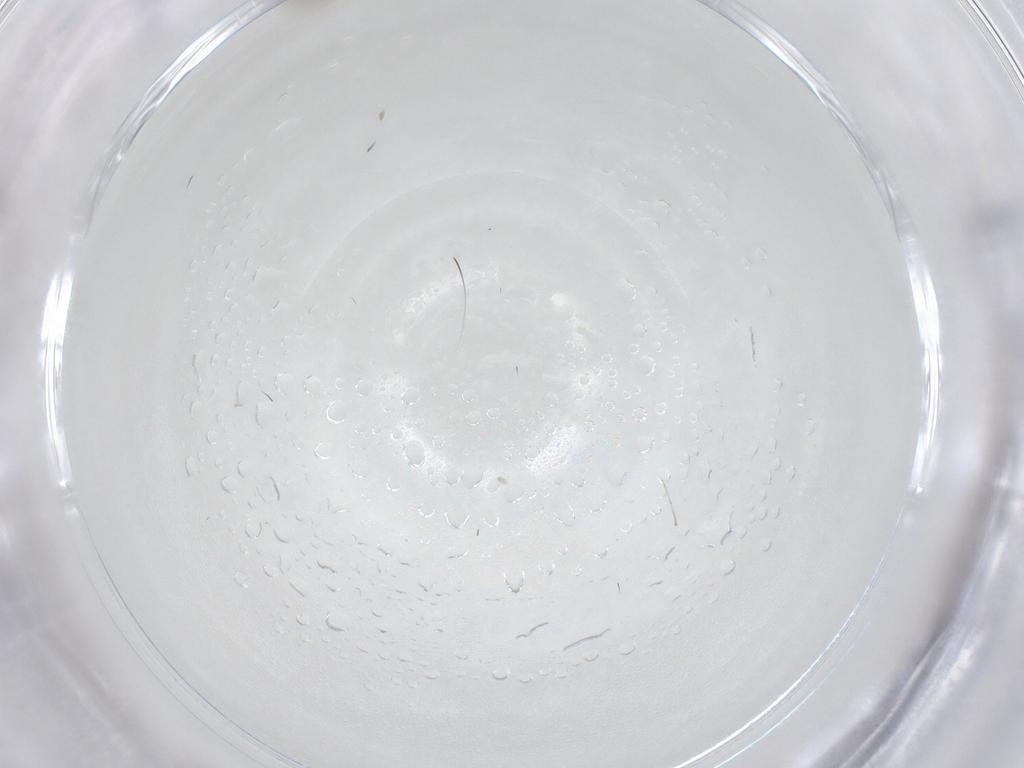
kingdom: Animalia
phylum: Arthropoda
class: Insecta
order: Diptera
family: Cecidomyiidae
